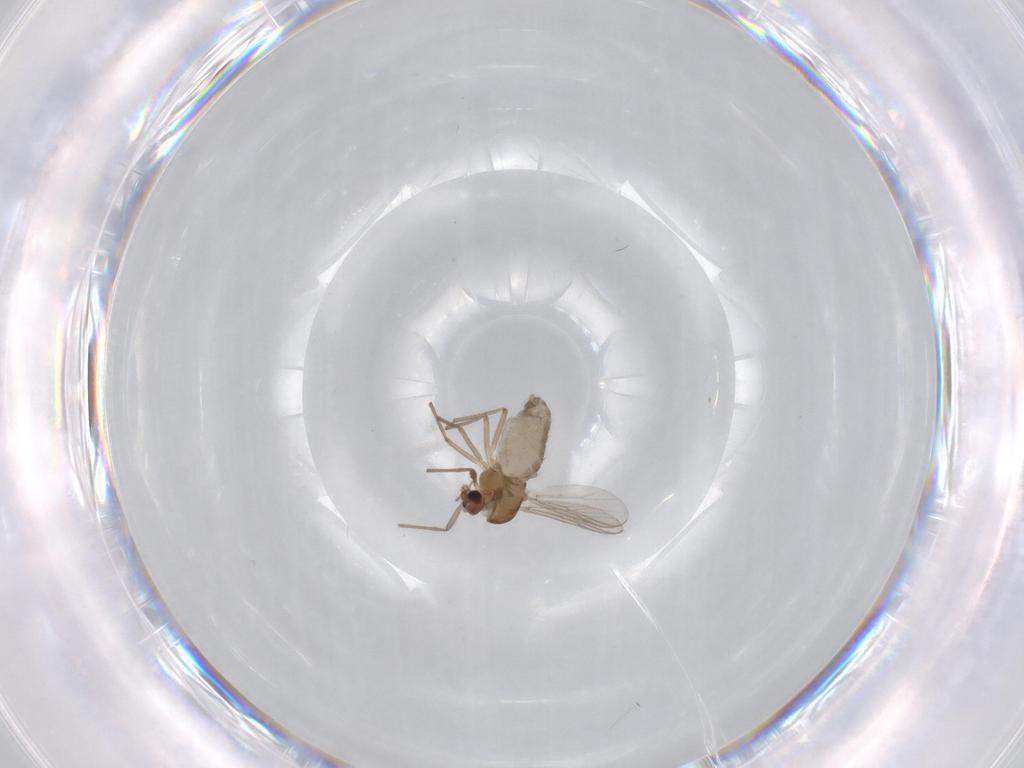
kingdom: Animalia
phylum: Arthropoda
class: Insecta
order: Diptera
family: Chironomidae
